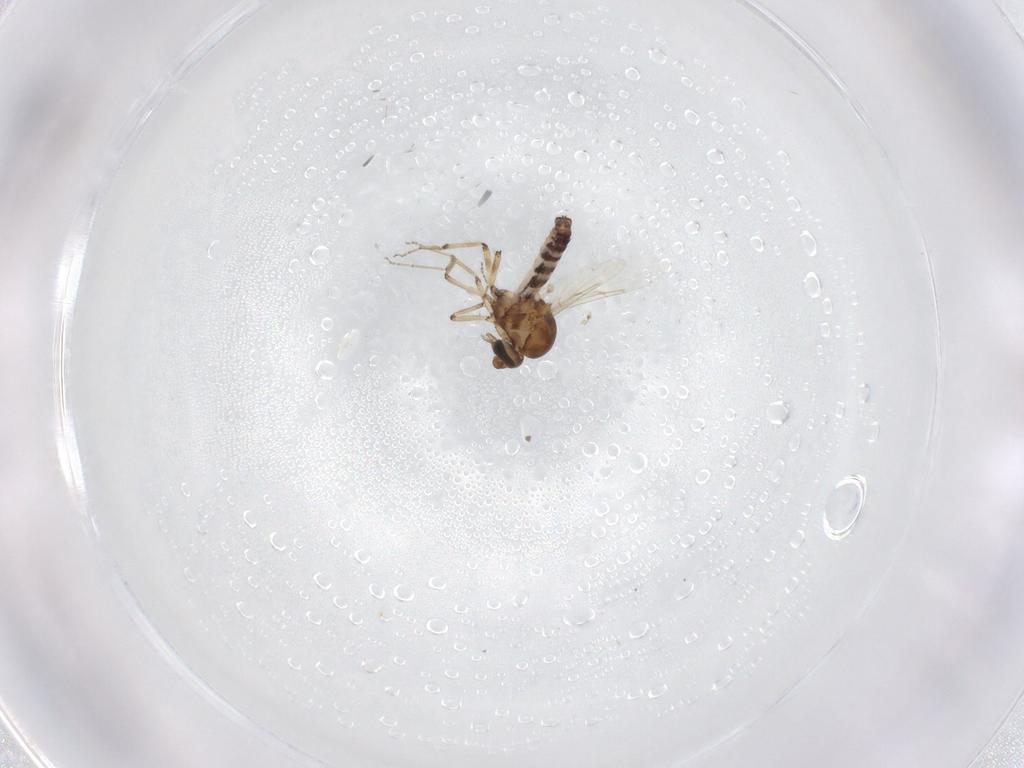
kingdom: Animalia
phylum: Arthropoda
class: Insecta
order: Diptera
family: Ceratopogonidae
